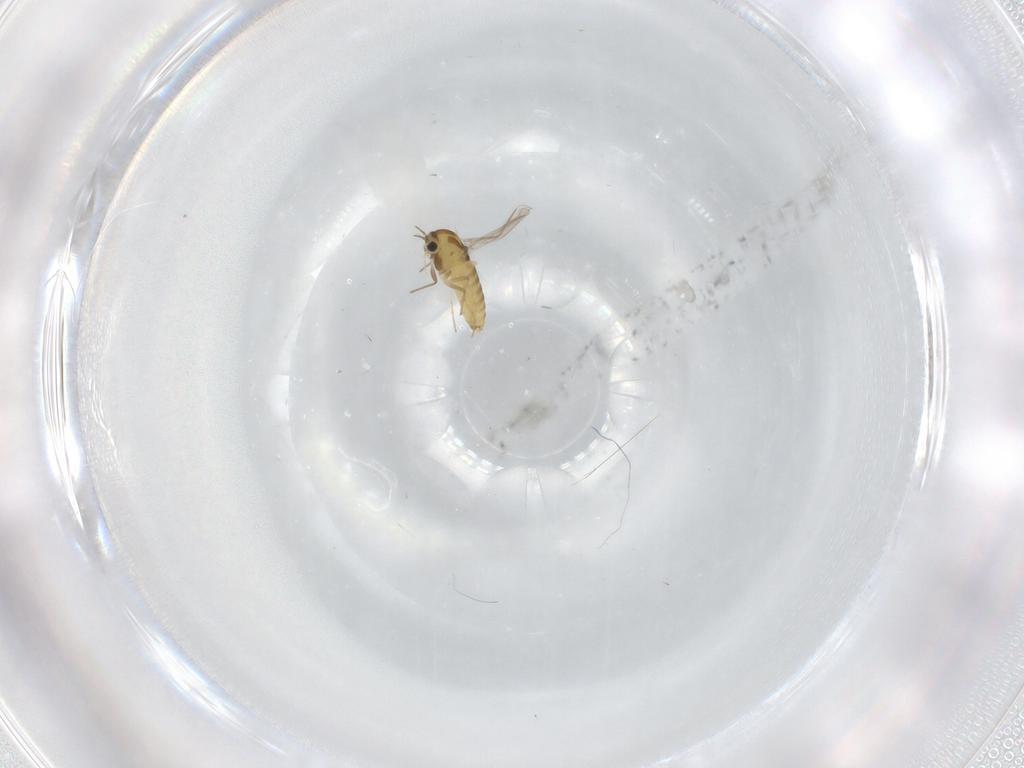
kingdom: Animalia
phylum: Arthropoda
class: Insecta
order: Diptera
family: Chironomidae
